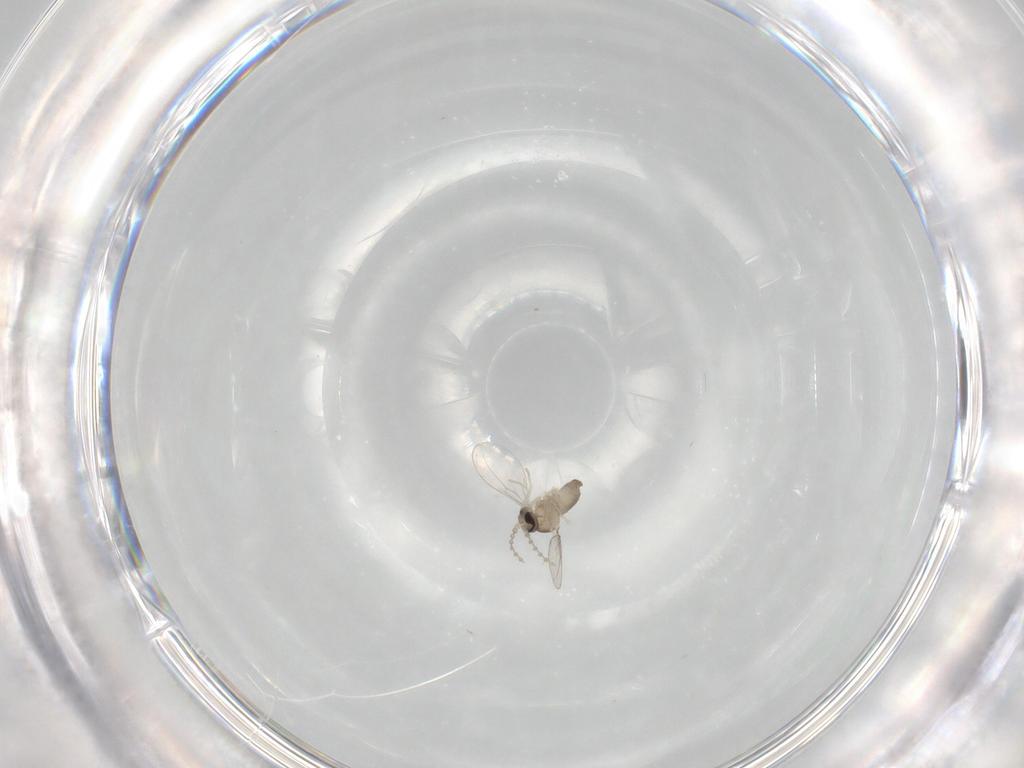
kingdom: Animalia
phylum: Arthropoda
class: Insecta
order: Diptera
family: Cecidomyiidae
